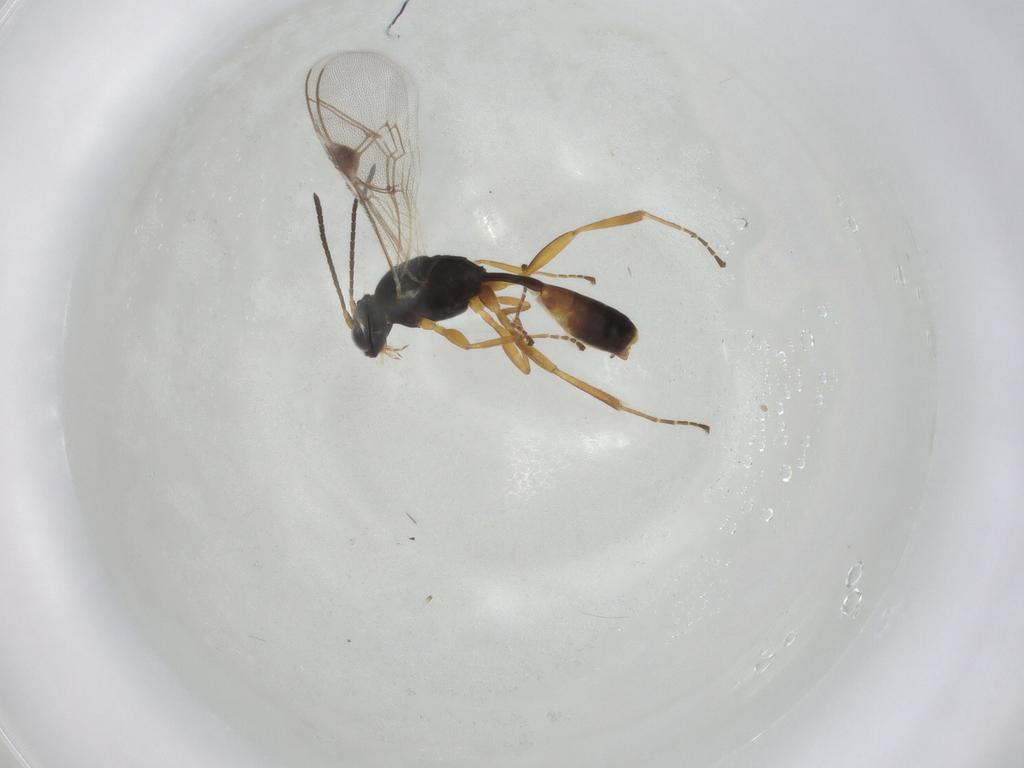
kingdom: Animalia
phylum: Arthropoda
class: Insecta
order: Hymenoptera
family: Ichneumonidae
